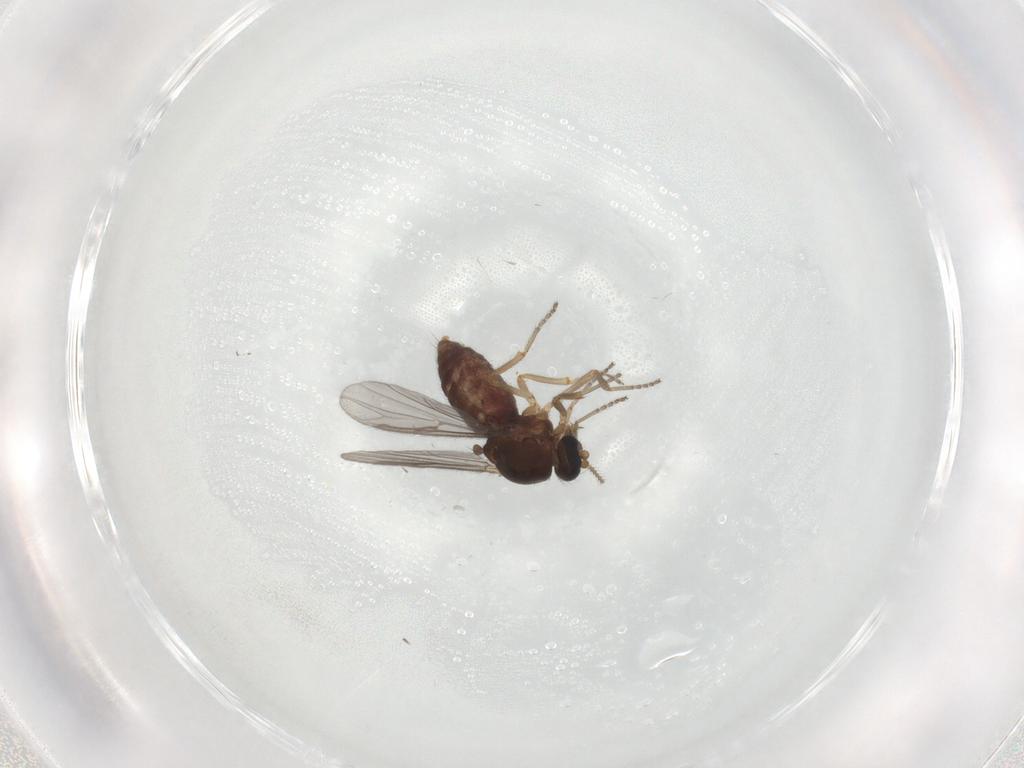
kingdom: Animalia
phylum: Arthropoda
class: Insecta
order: Diptera
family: Ceratopogonidae
